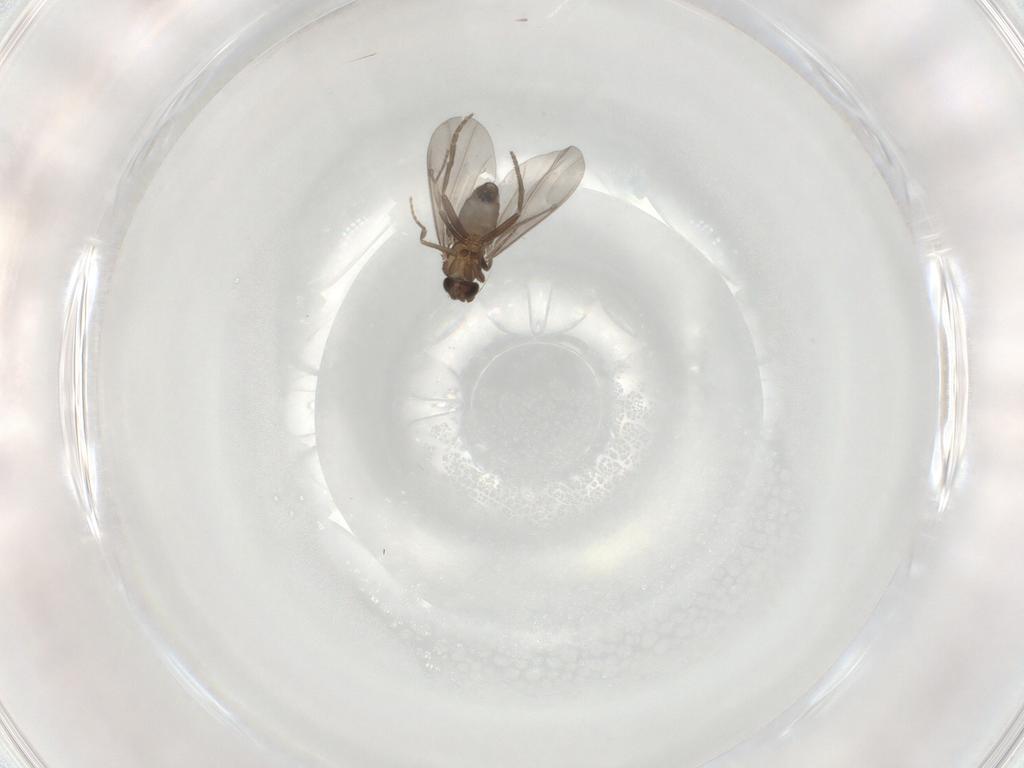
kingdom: Animalia
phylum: Arthropoda
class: Insecta
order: Diptera
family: Phoridae
